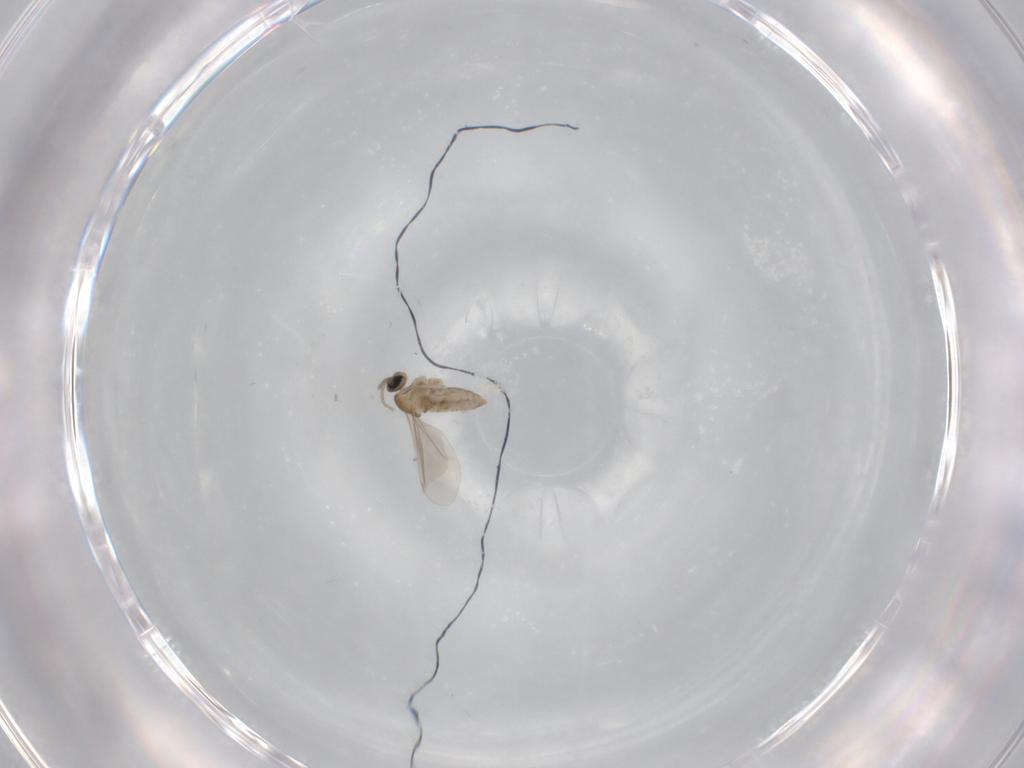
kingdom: Animalia
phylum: Arthropoda
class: Insecta
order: Diptera
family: Cecidomyiidae
